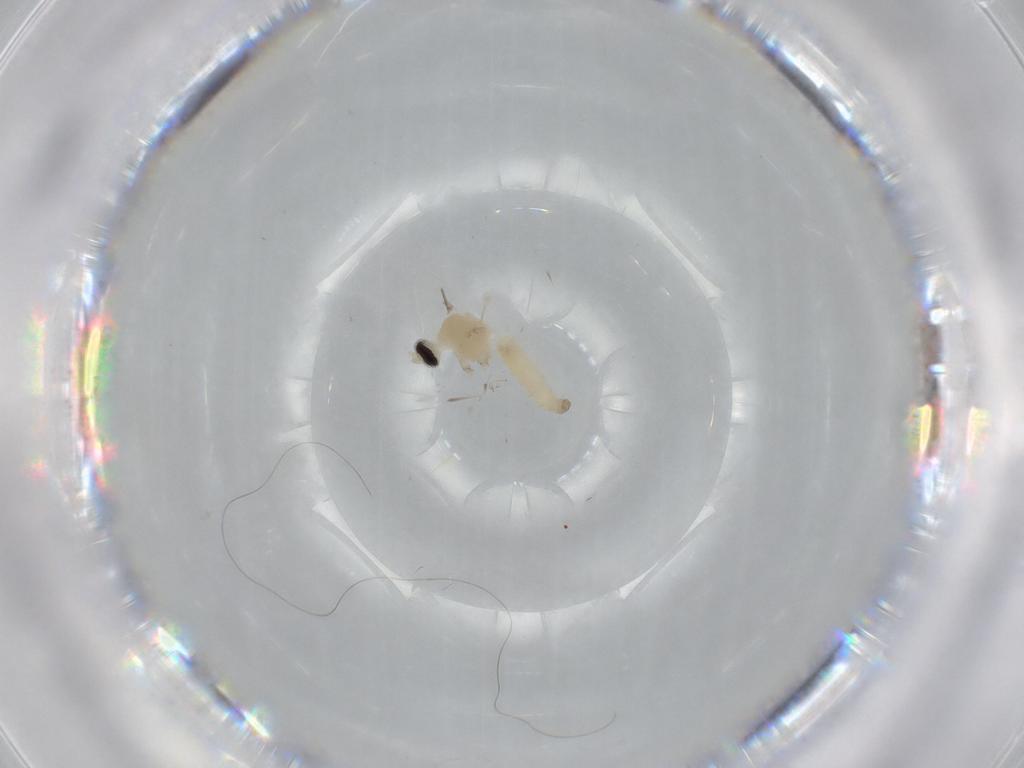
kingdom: Animalia
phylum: Arthropoda
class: Insecta
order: Diptera
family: Cecidomyiidae
